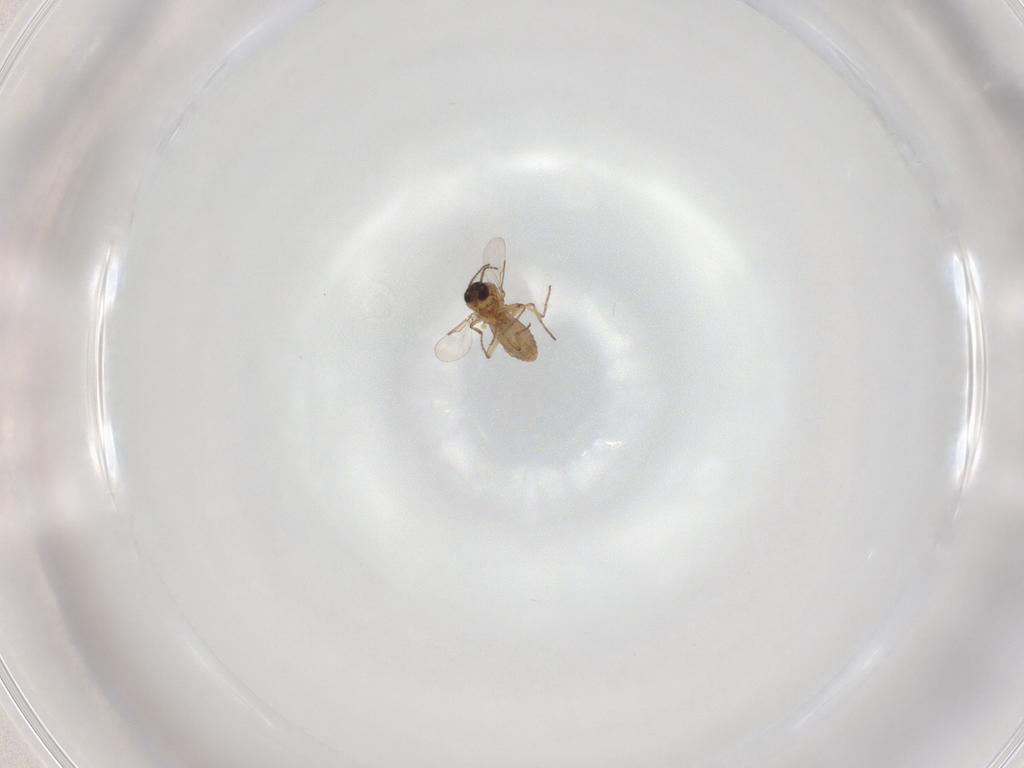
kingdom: Animalia
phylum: Arthropoda
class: Insecta
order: Diptera
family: Ceratopogonidae
